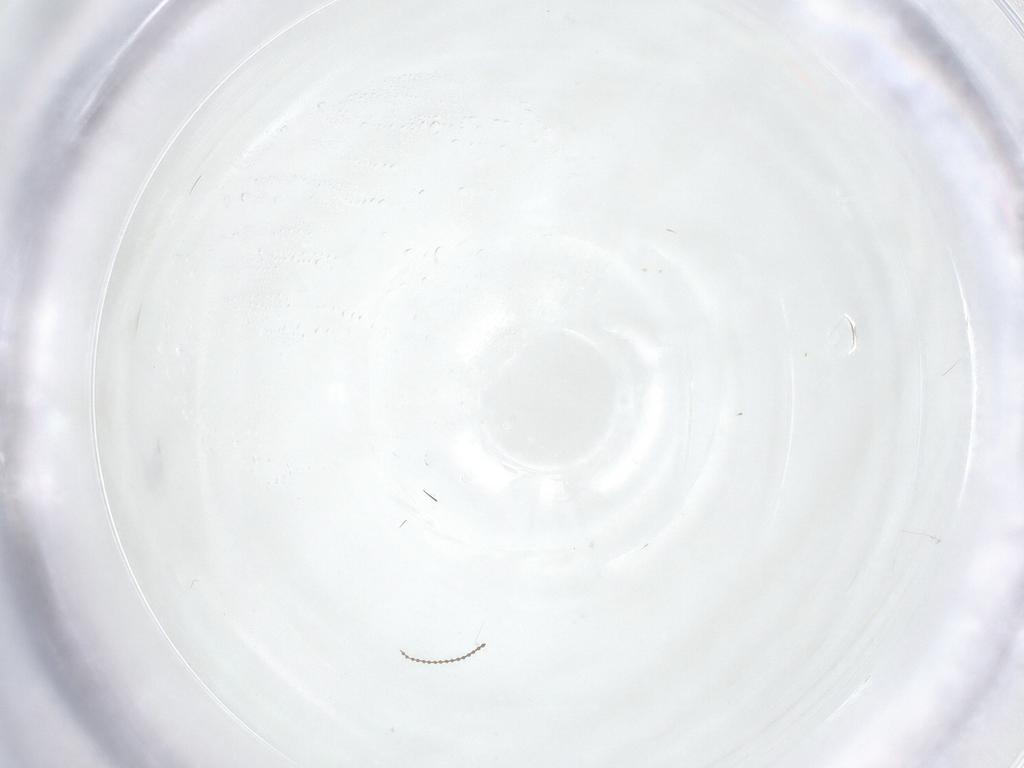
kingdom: Animalia
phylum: Arthropoda
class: Insecta
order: Diptera
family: Cecidomyiidae
